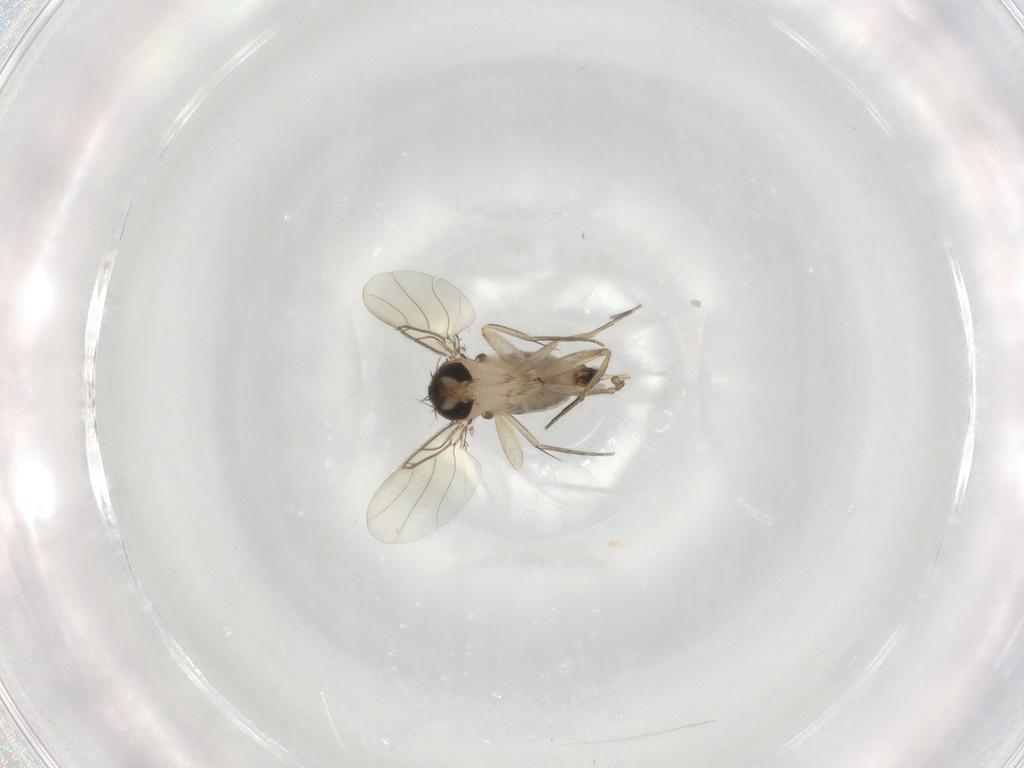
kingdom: Animalia
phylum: Arthropoda
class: Insecta
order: Diptera
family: Phoridae
